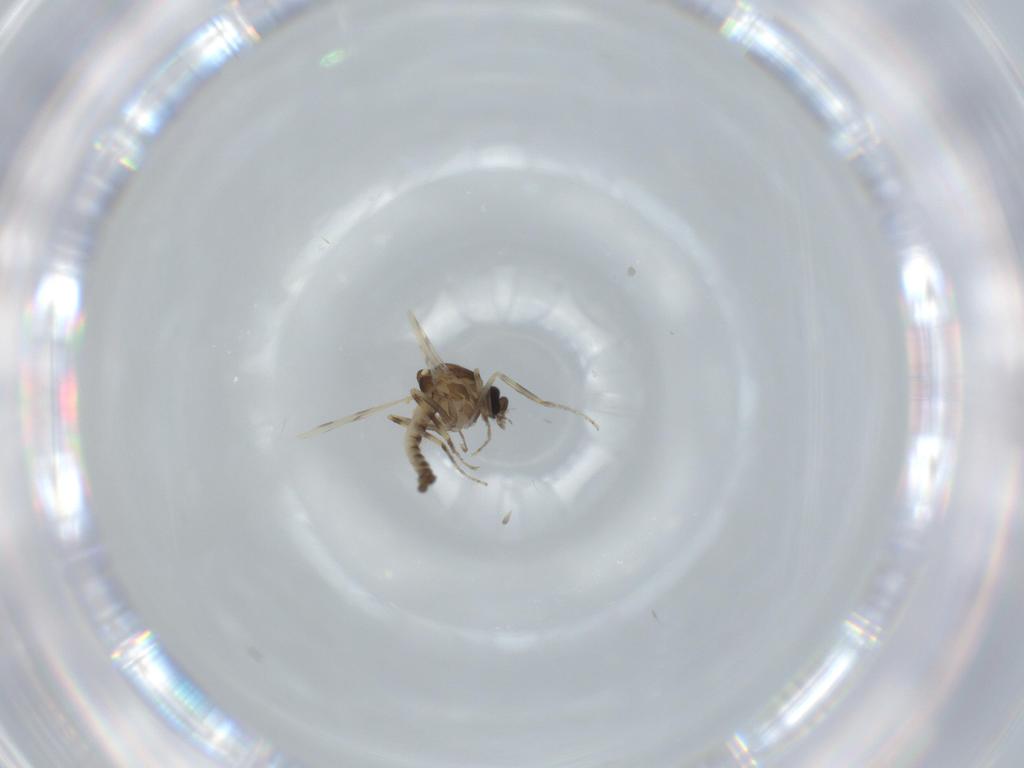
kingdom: Animalia
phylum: Arthropoda
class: Insecta
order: Diptera
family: Ceratopogonidae
